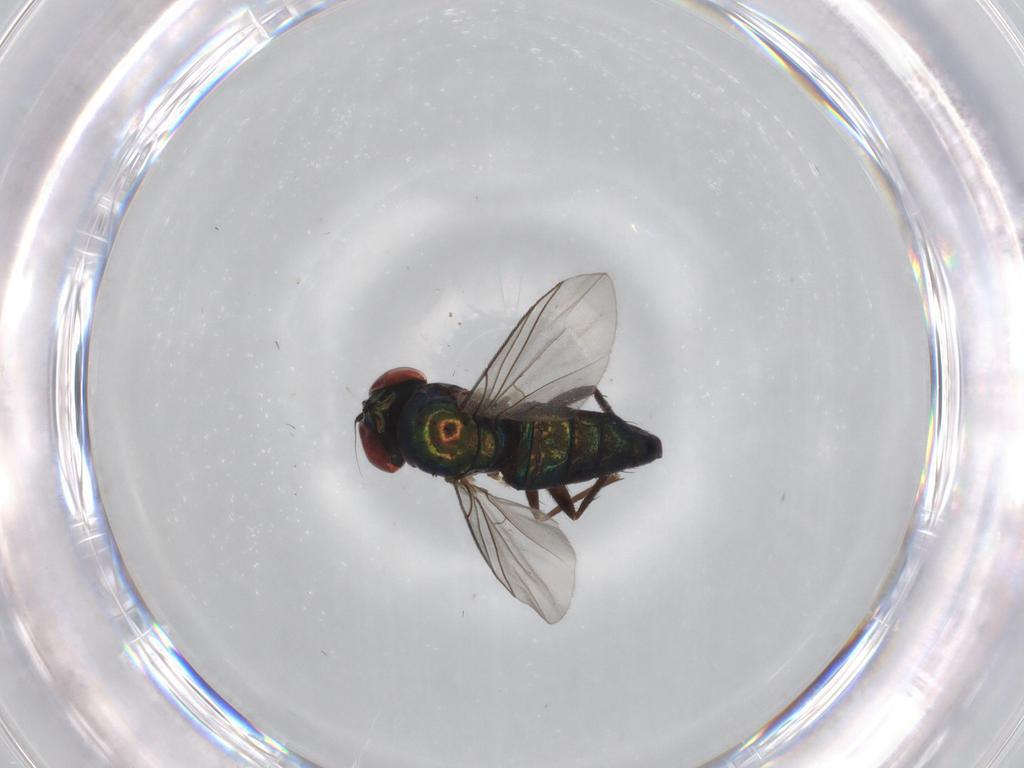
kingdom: Animalia
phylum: Arthropoda
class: Insecta
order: Diptera
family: Dolichopodidae
